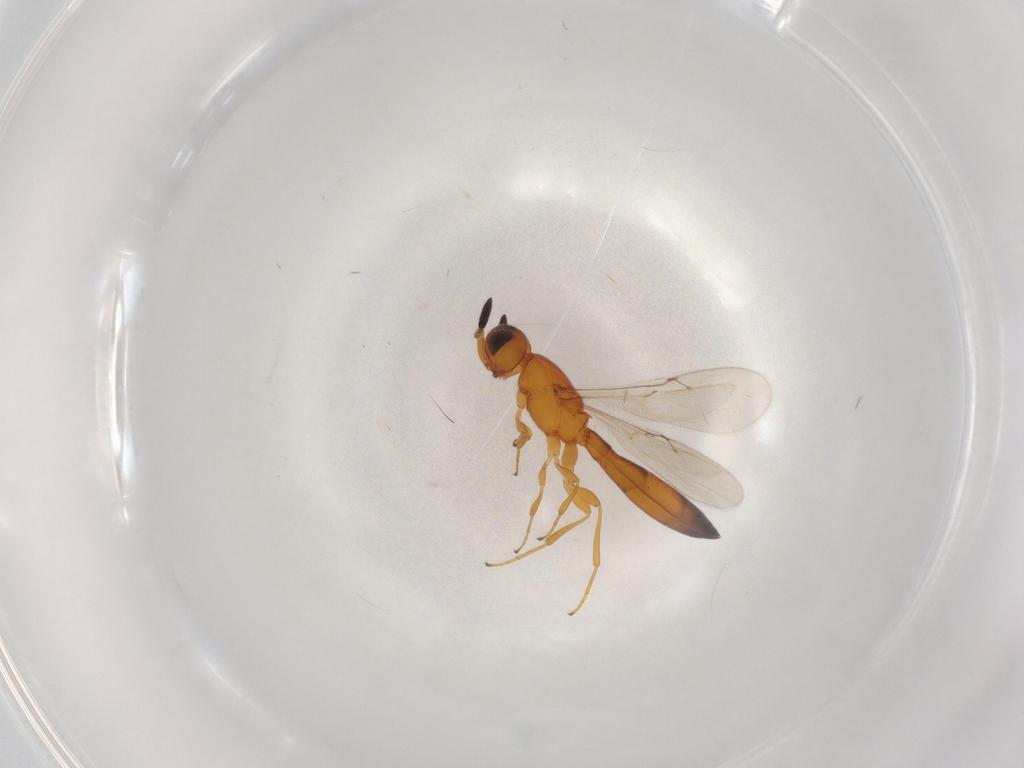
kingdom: Animalia
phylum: Arthropoda
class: Insecta
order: Hymenoptera
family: Scelionidae
